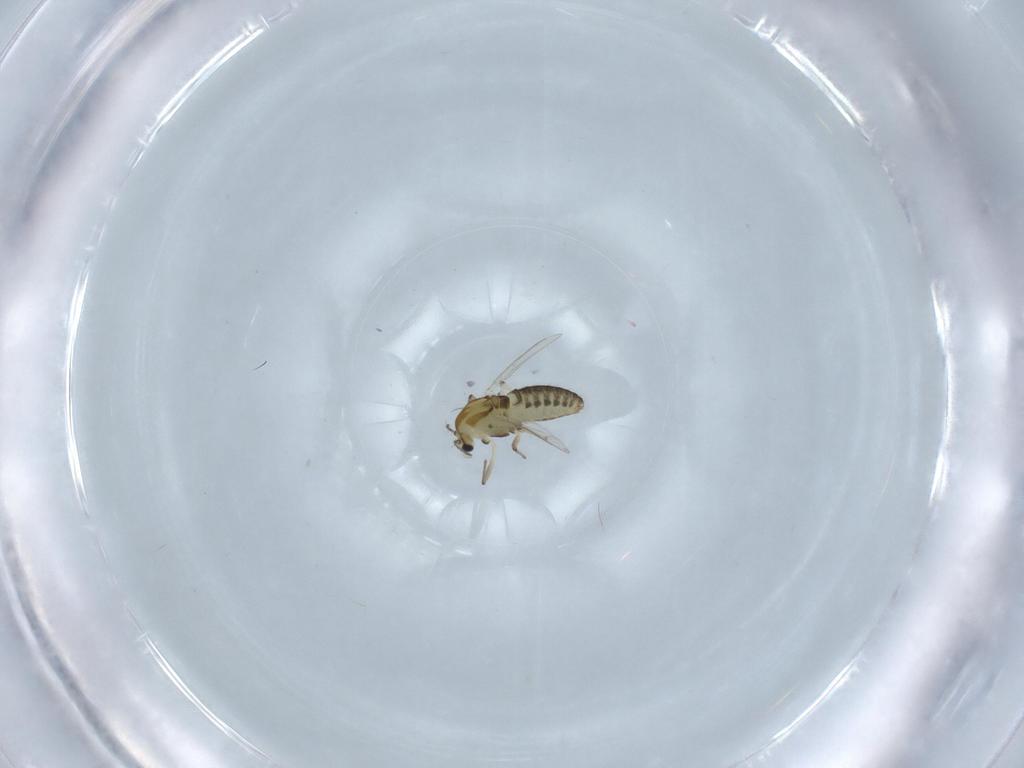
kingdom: Animalia
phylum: Arthropoda
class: Insecta
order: Diptera
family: Chironomidae
